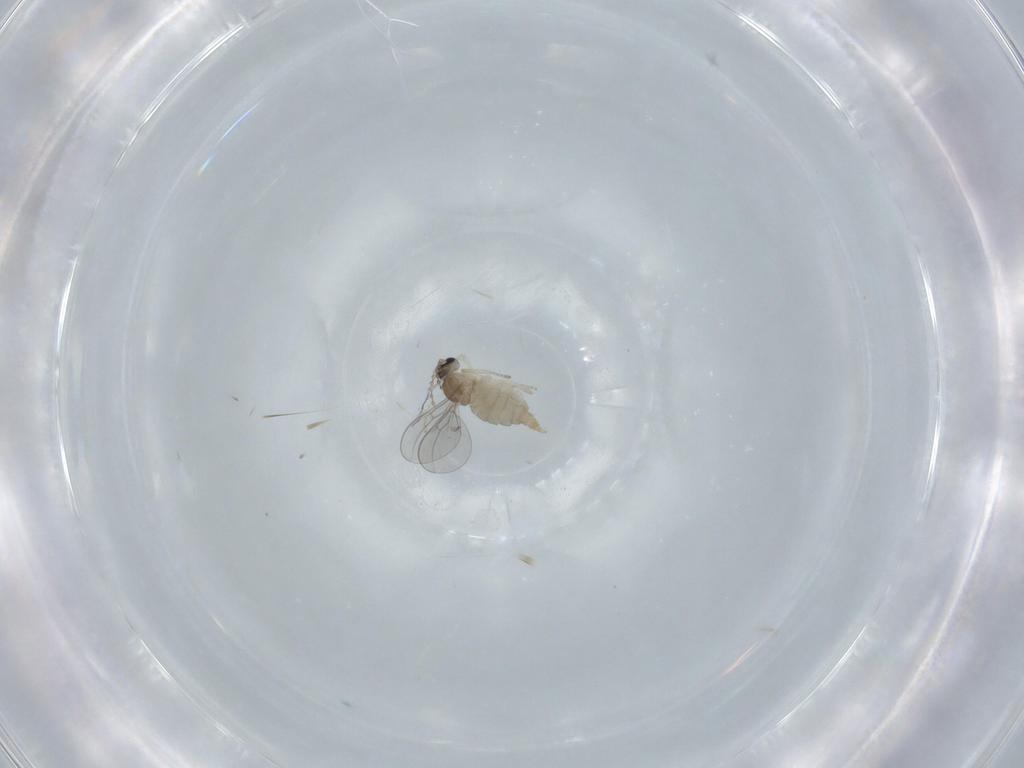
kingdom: Animalia
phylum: Arthropoda
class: Insecta
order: Diptera
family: Cecidomyiidae
